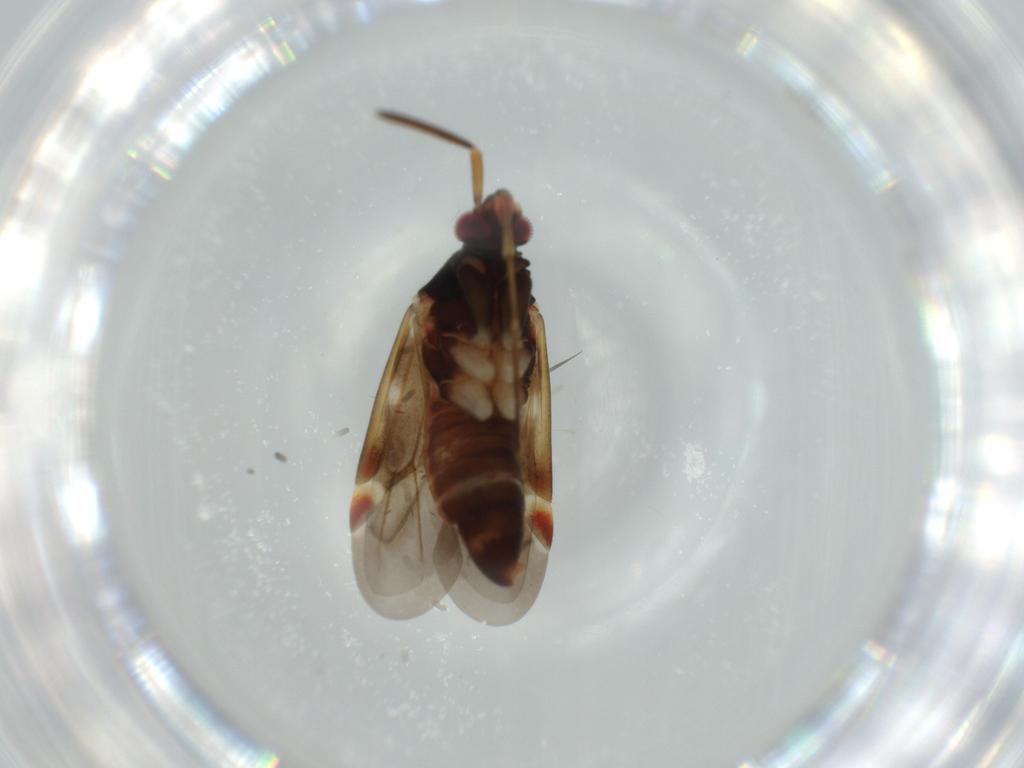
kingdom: Animalia
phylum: Arthropoda
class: Insecta
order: Hemiptera
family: Miridae
